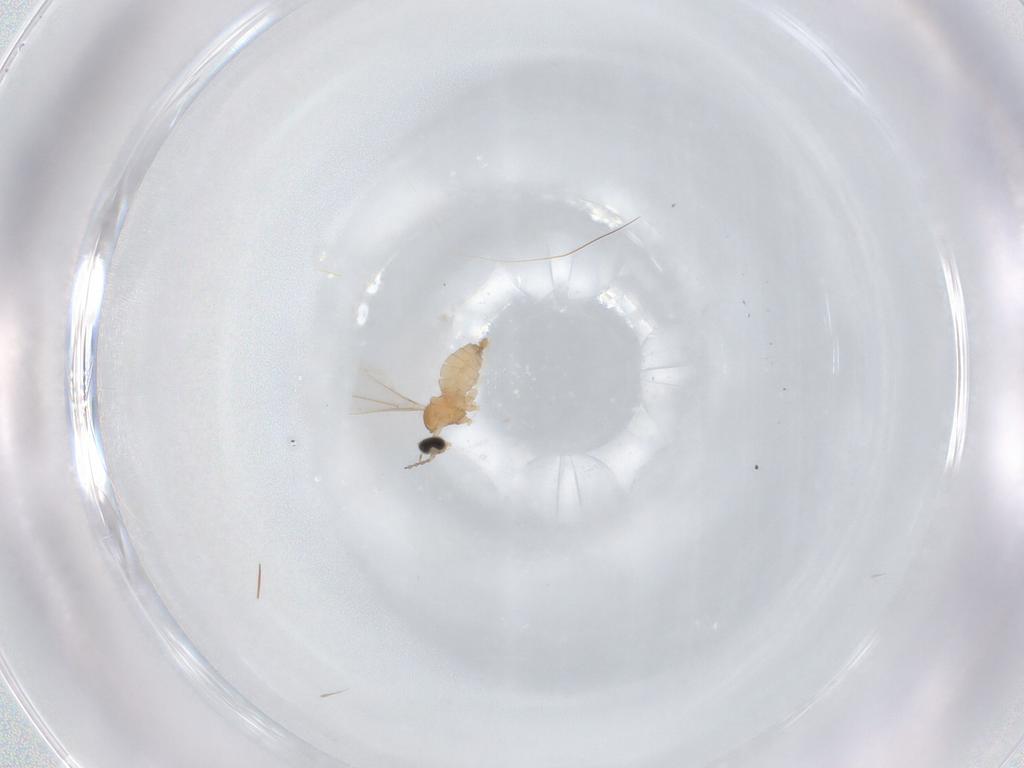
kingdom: Animalia
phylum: Arthropoda
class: Insecta
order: Diptera
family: Cecidomyiidae
